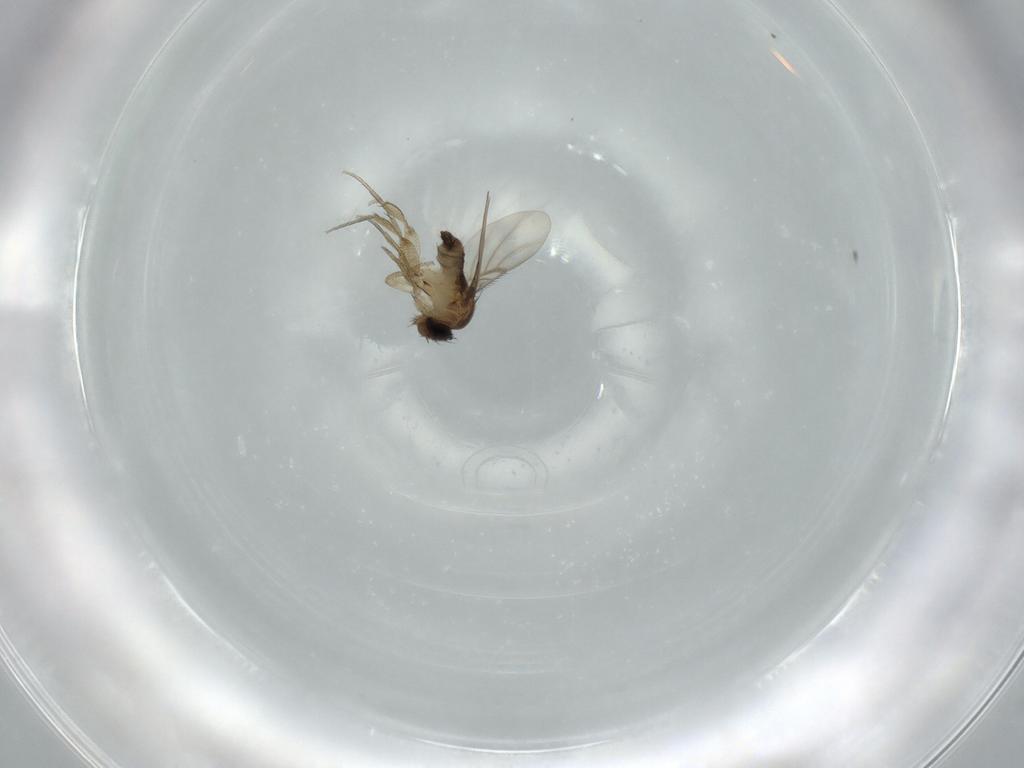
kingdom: Animalia
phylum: Arthropoda
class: Insecta
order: Diptera
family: Phoridae
